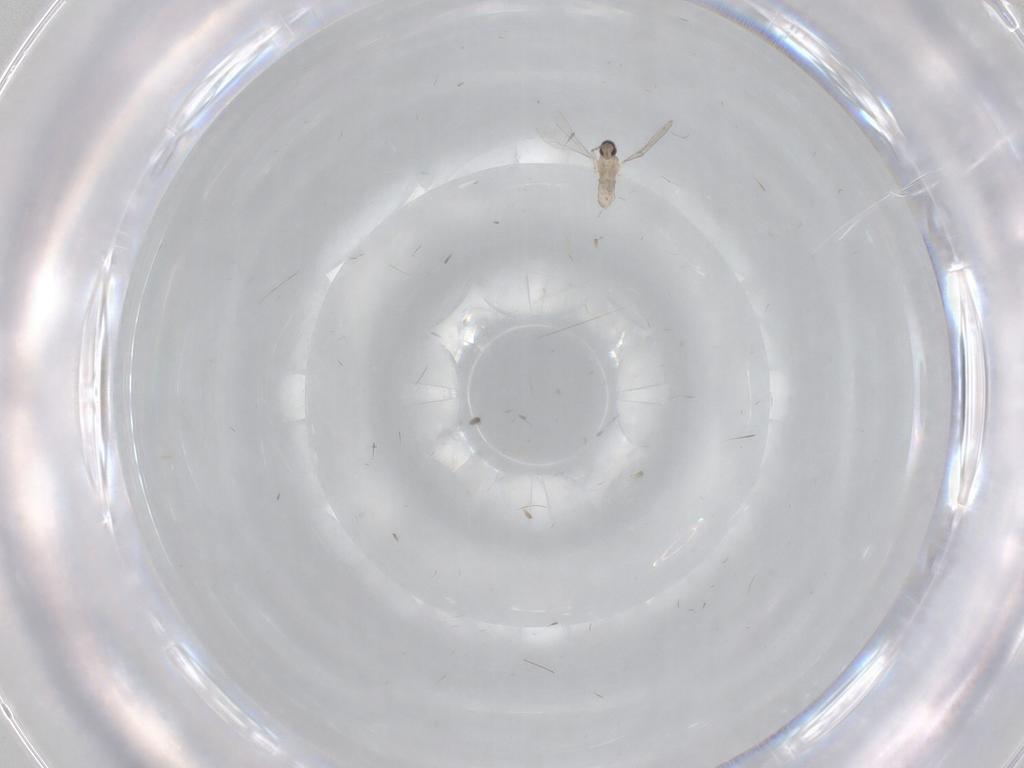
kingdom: Animalia
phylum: Arthropoda
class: Insecta
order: Diptera
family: Cecidomyiidae
